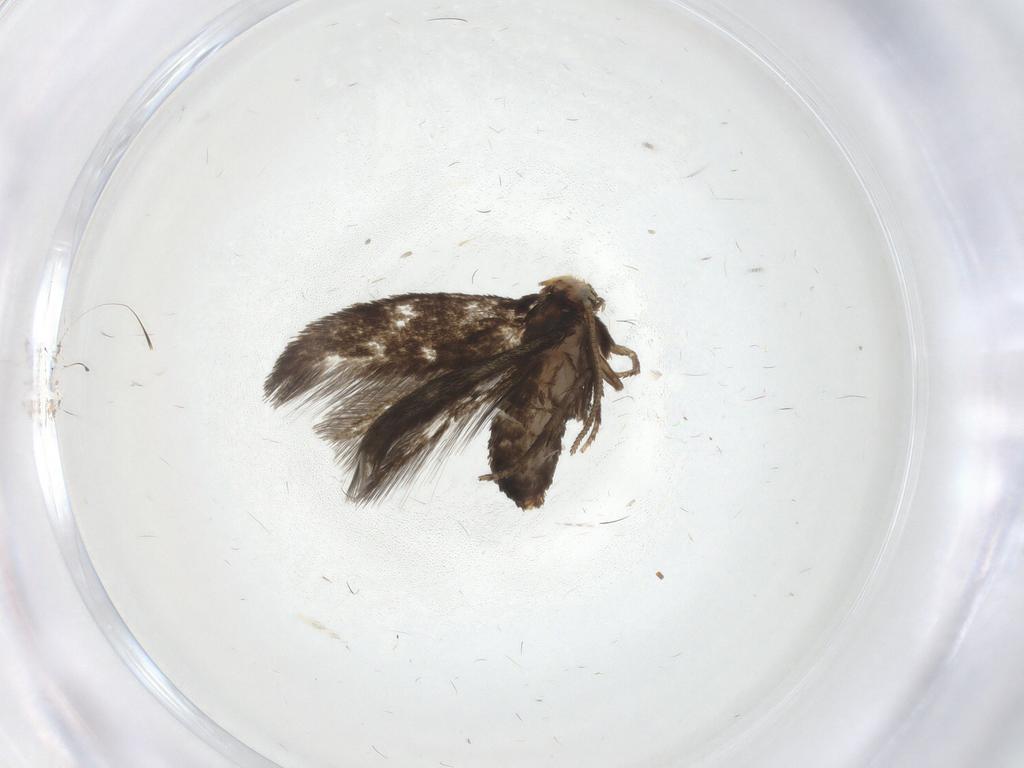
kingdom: Animalia
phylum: Arthropoda
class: Insecta
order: Lepidoptera
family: Nepticulidae
